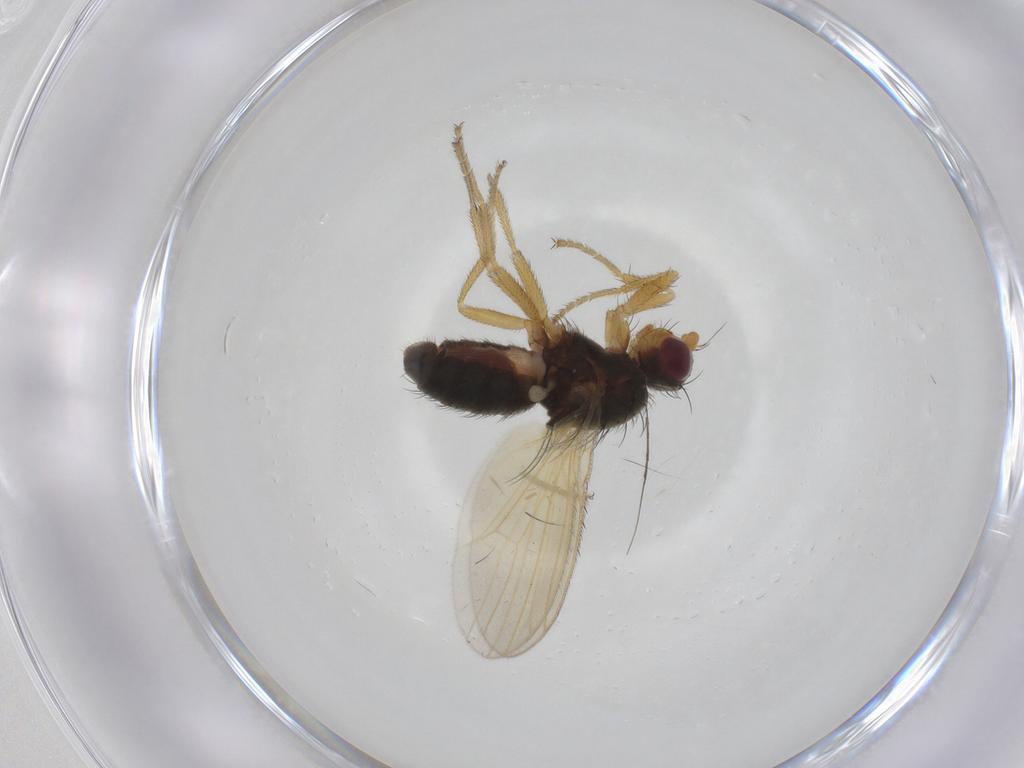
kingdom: Animalia
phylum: Arthropoda
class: Insecta
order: Diptera
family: Heleomyzidae
